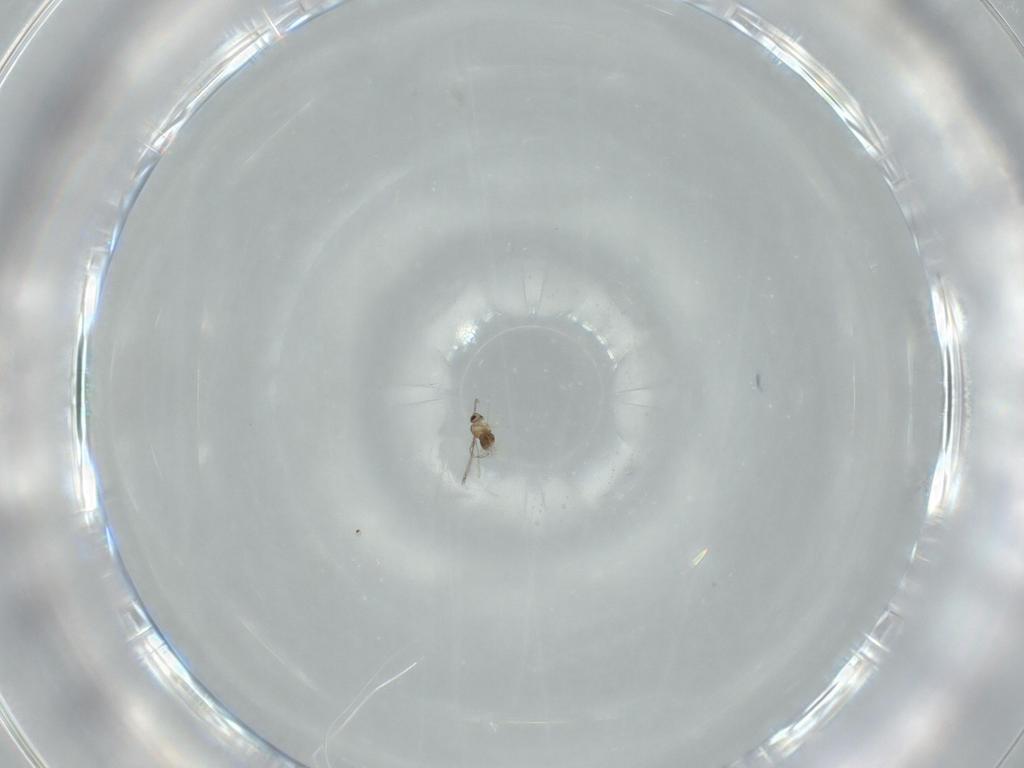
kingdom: Animalia
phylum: Arthropoda
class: Insecta
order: Hymenoptera
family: Mymaridae
